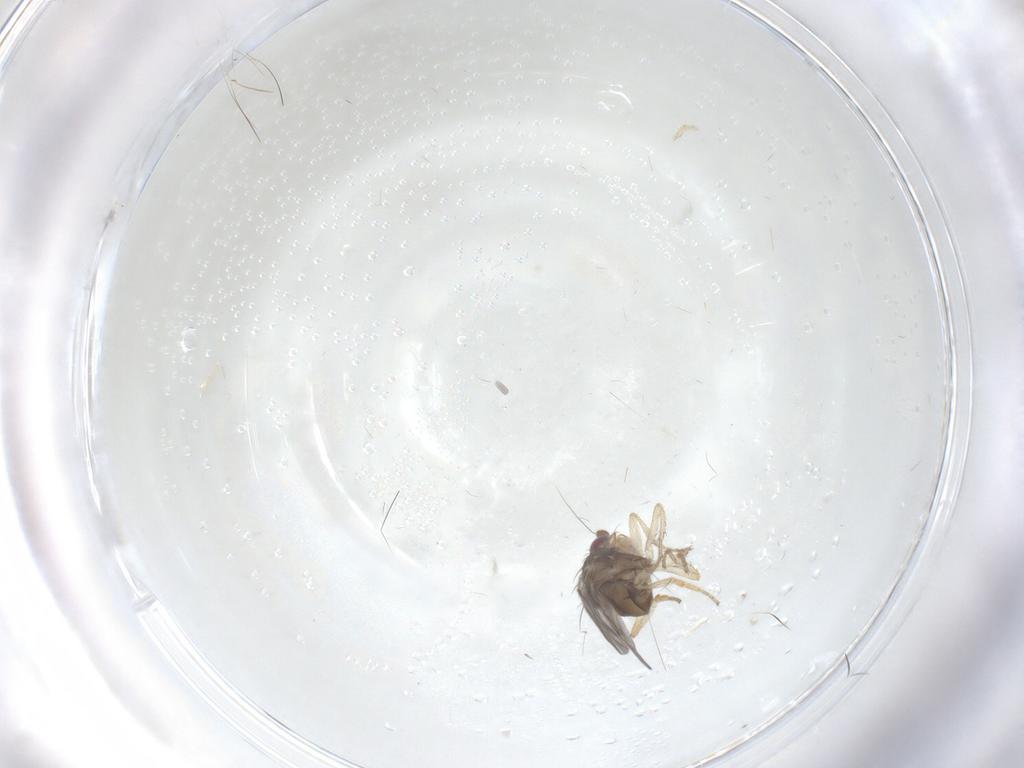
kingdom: Animalia
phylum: Arthropoda
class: Insecta
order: Diptera
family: Sphaeroceridae
